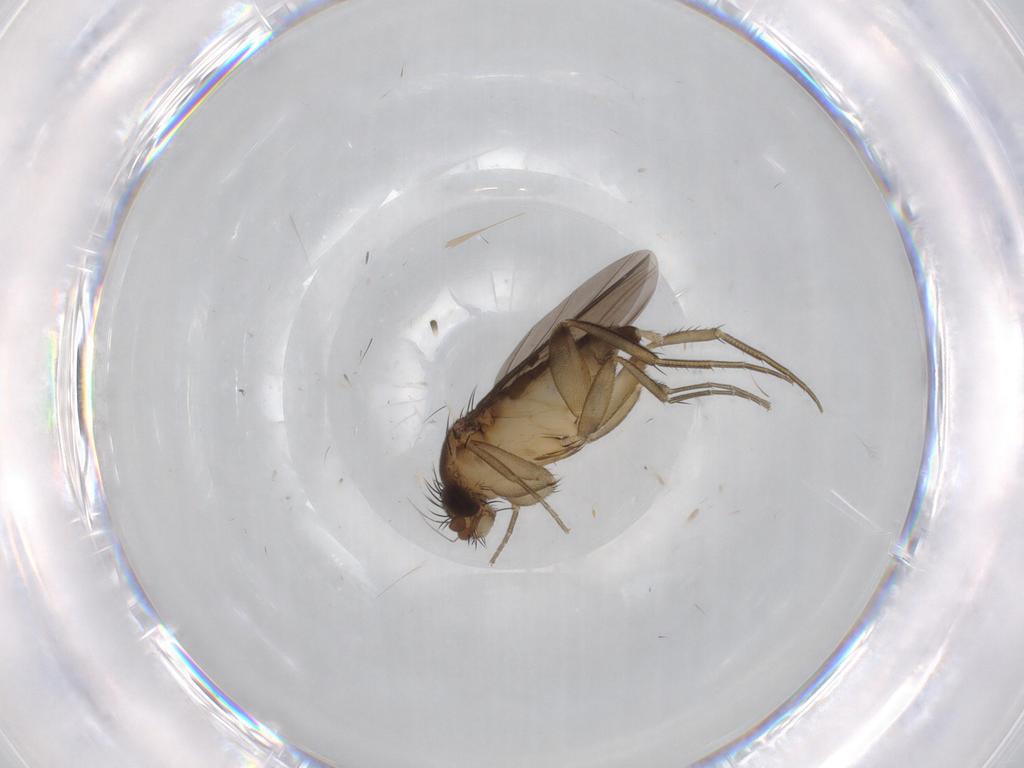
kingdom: Animalia
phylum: Arthropoda
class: Insecta
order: Diptera
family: Phoridae
